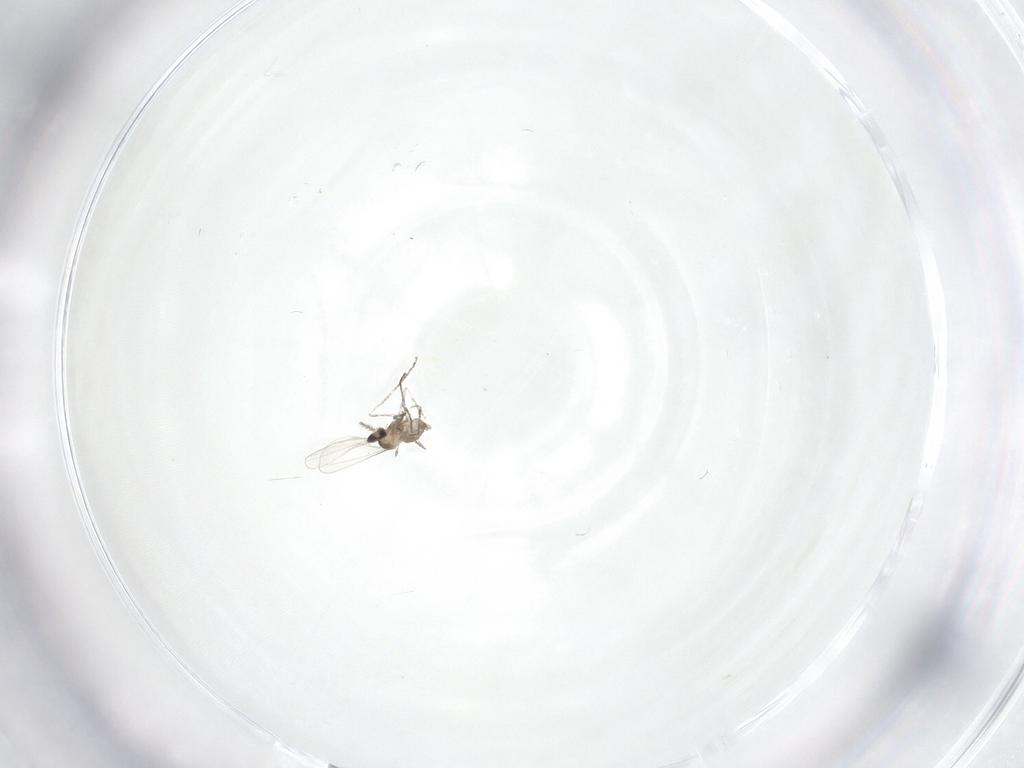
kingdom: Animalia
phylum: Arthropoda
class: Insecta
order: Diptera
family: Cecidomyiidae
